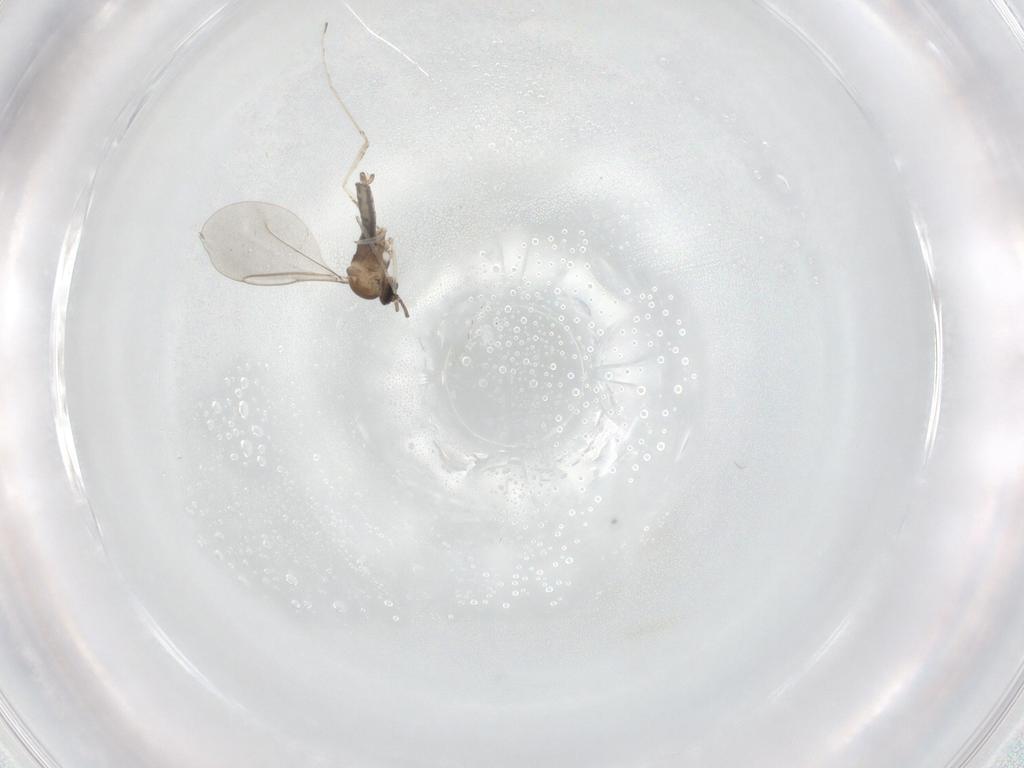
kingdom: Animalia
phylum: Arthropoda
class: Insecta
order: Diptera
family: Cecidomyiidae
